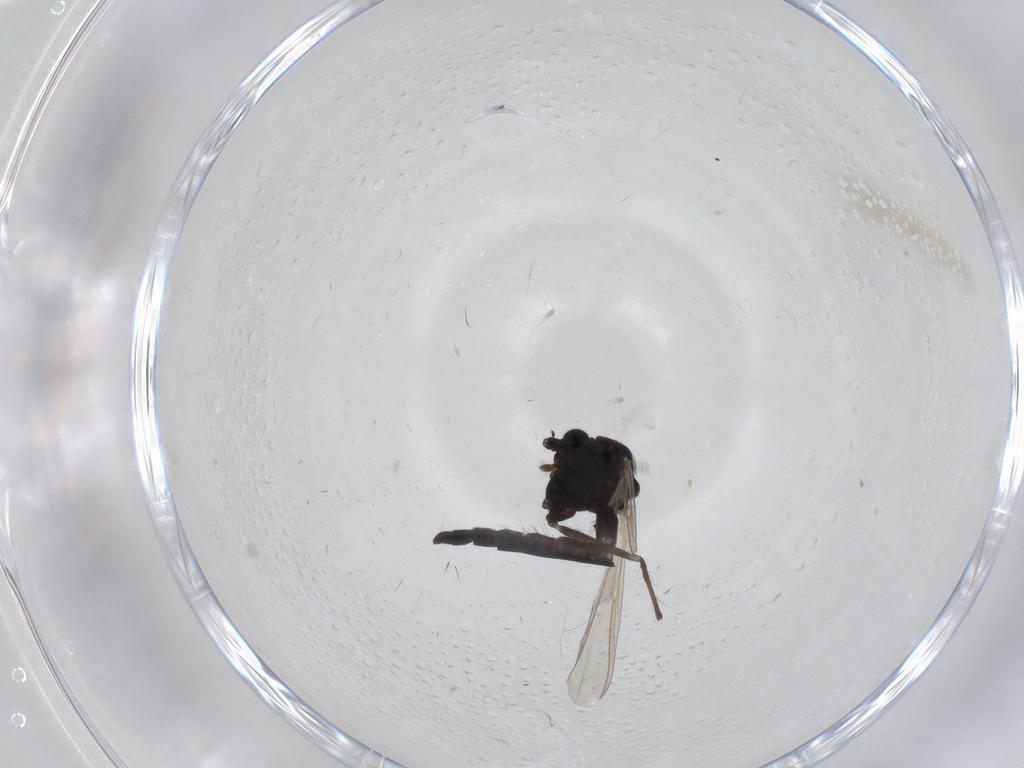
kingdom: Animalia
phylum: Arthropoda
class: Insecta
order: Diptera
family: Chironomidae
